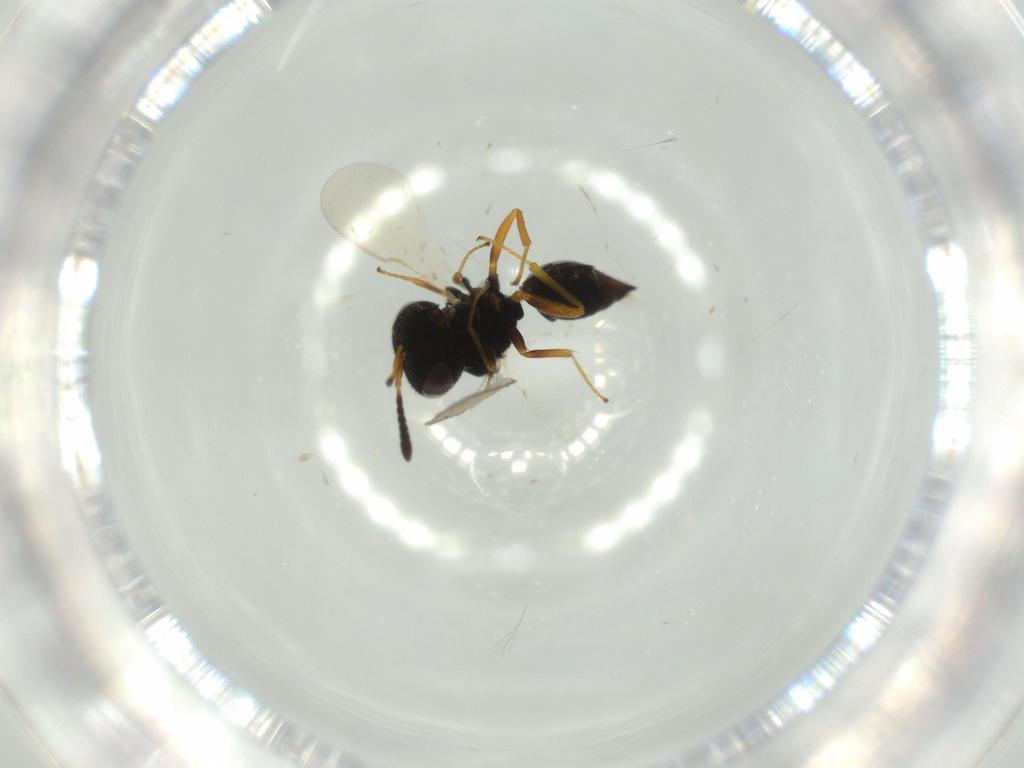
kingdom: Animalia
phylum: Arthropoda
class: Insecta
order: Hymenoptera
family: Pteromalidae
